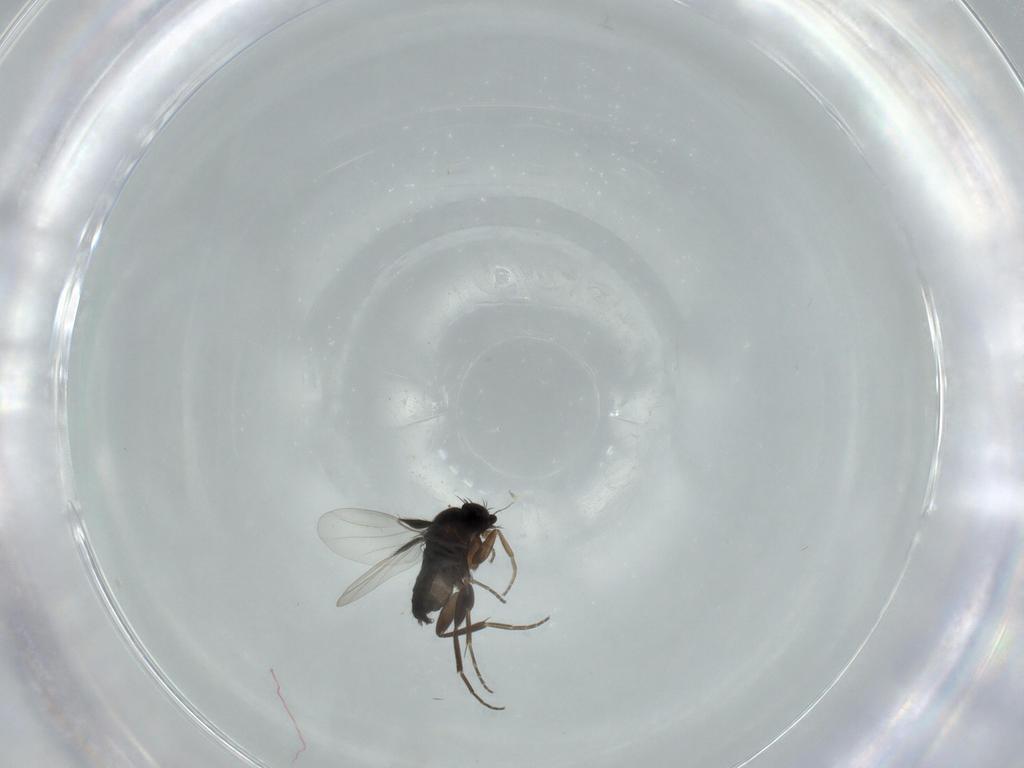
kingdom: Animalia
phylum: Arthropoda
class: Insecta
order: Diptera
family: Phoridae
